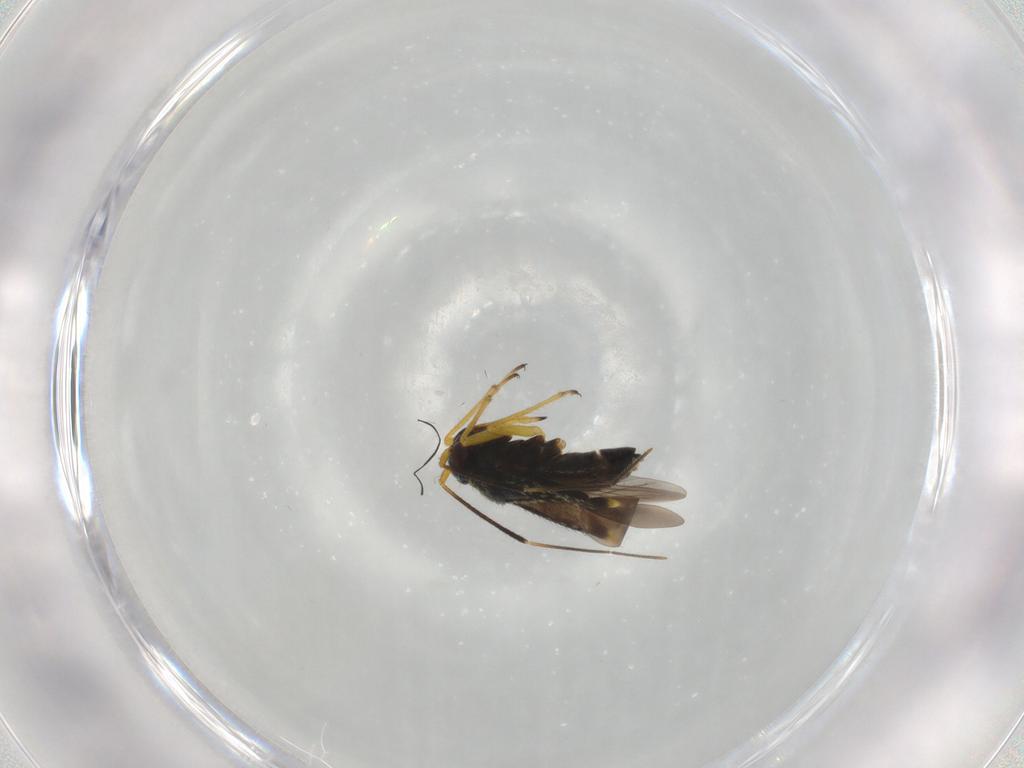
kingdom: Animalia
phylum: Arthropoda
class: Insecta
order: Hemiptera
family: Miridae
